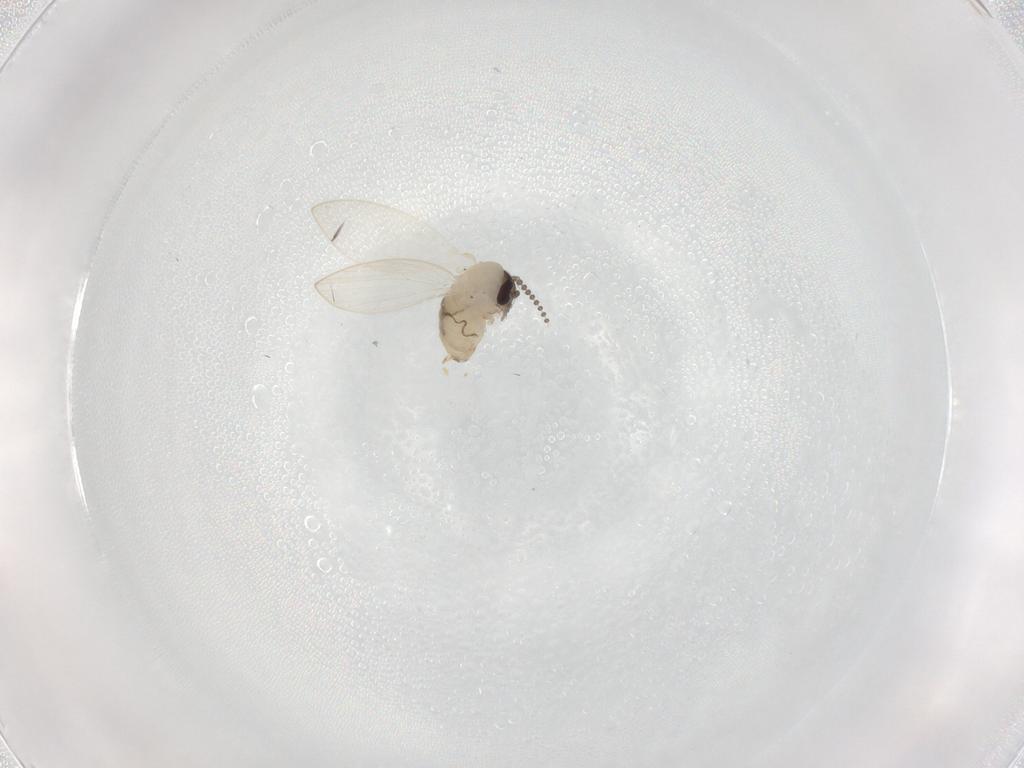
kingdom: Animalia
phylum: Arthropoda
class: Insecta
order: Diptera
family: Psychodidae
